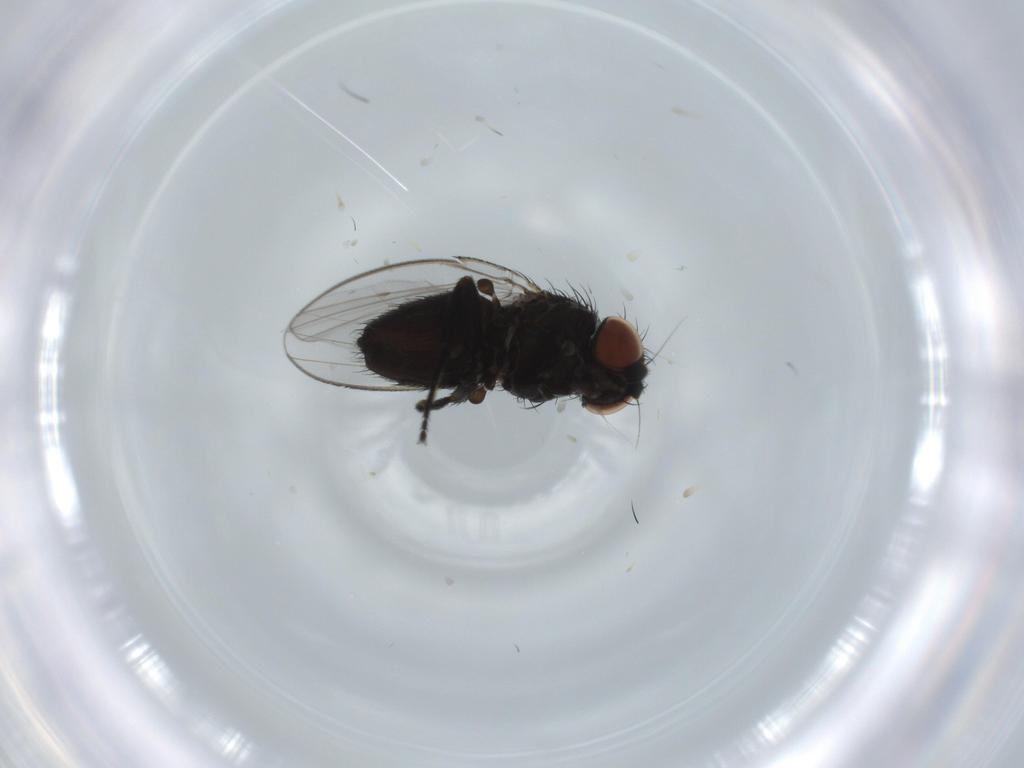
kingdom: Animalia
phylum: Arthropoda
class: Insecta
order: Diptera
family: Milichiidae
